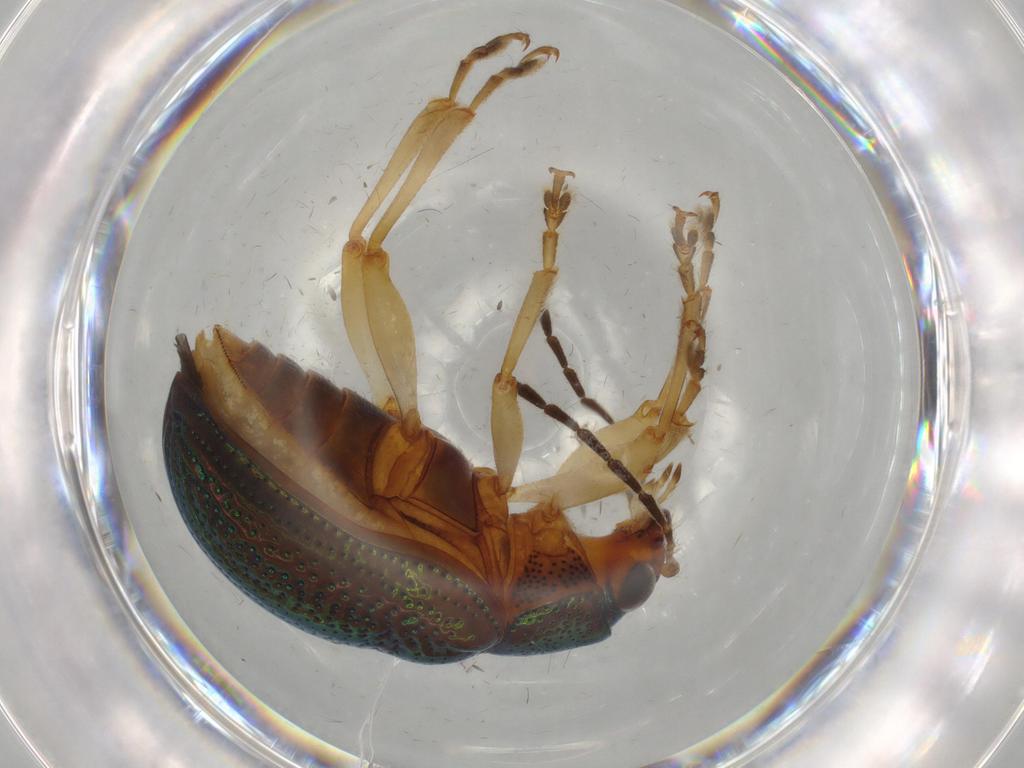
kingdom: Animalia
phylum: Arthropoda
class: Insecta
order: Coleoptera
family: Chrysomelidae
